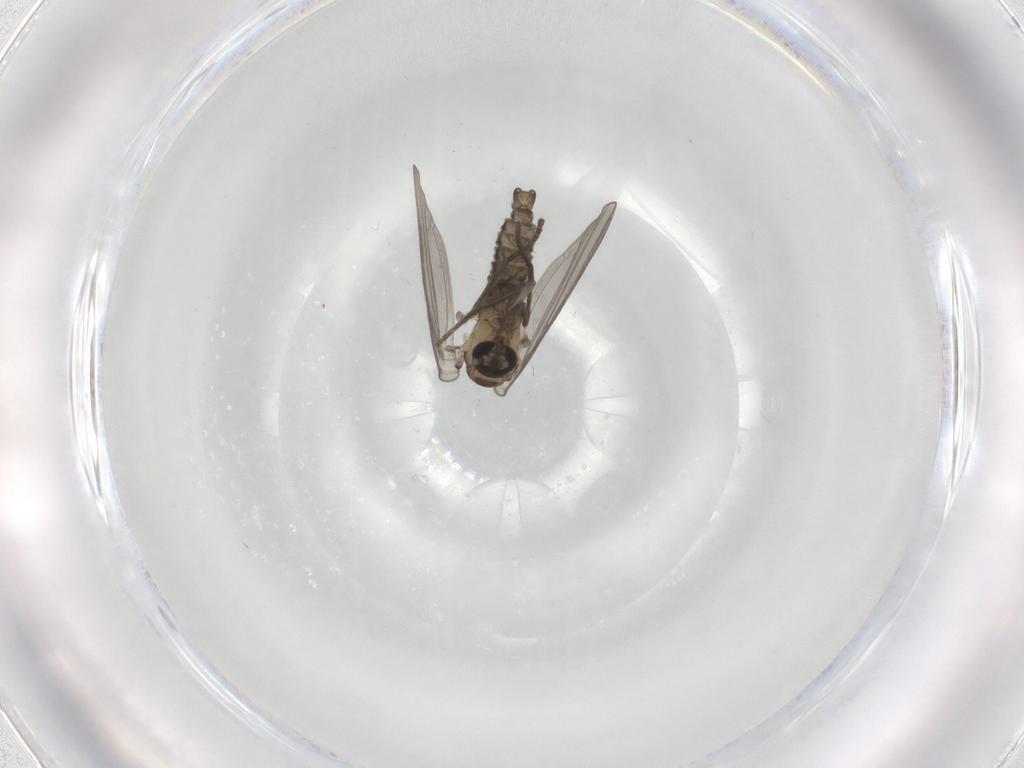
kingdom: Animalia
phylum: Arthropoda
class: Insecta
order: Diptera
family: Psychodidae
